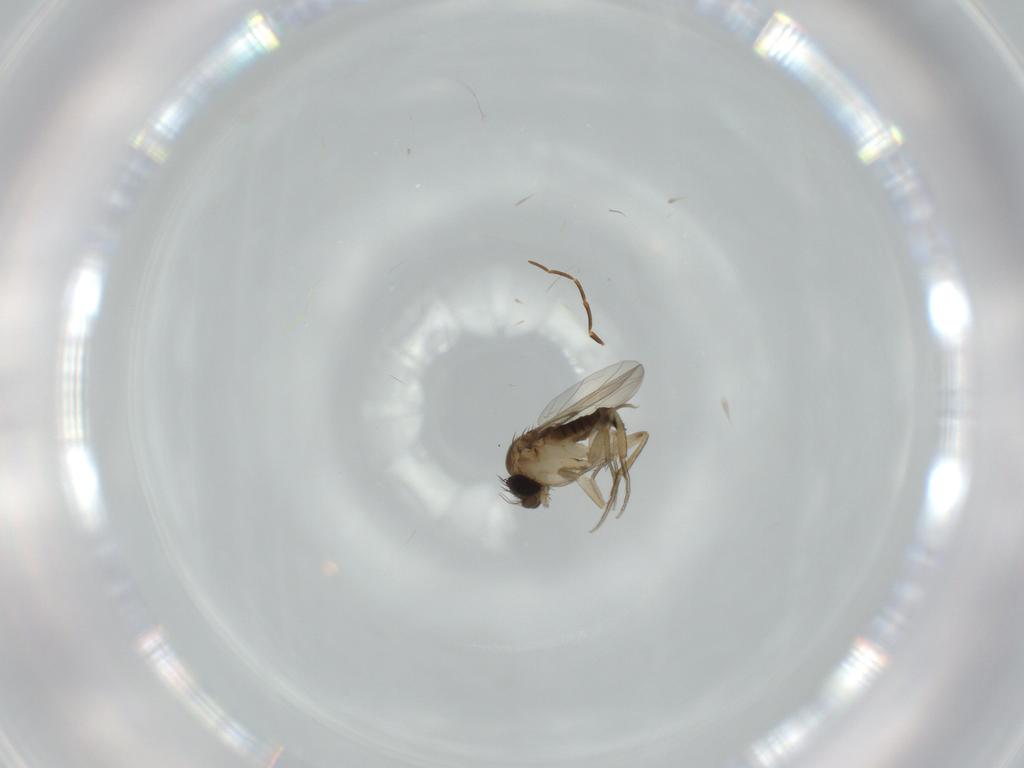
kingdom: Animalia
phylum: Arthropoda
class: Insecta
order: Diptera
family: Phoridae
